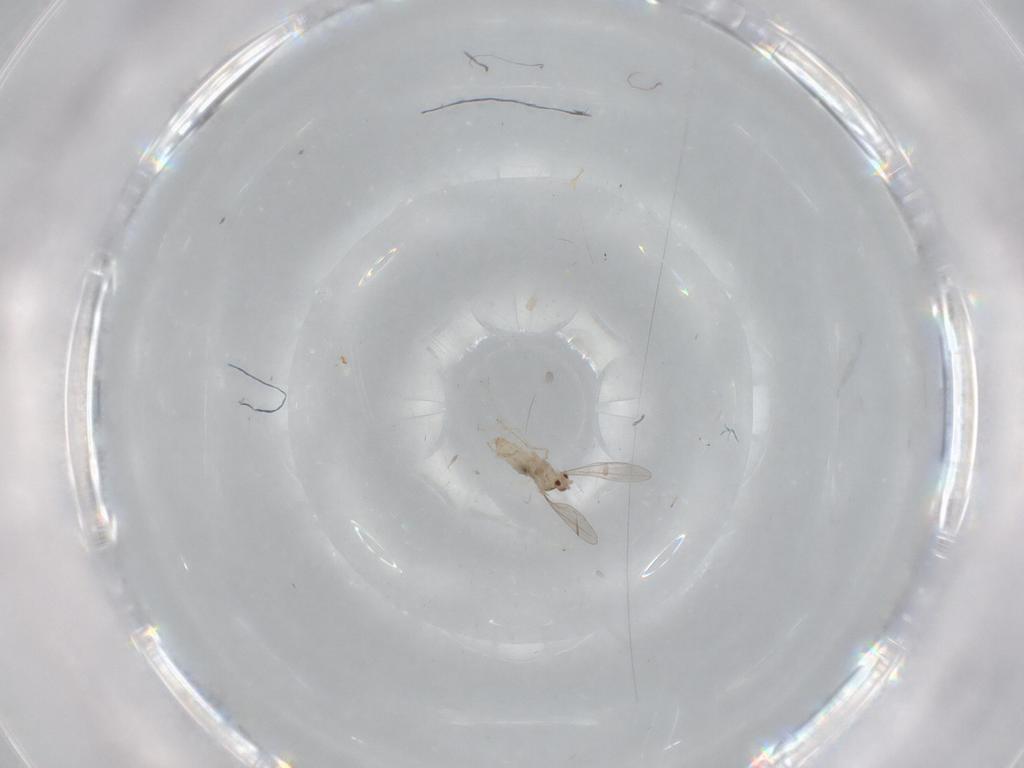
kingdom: Animalia
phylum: Arthropoda
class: Insecta
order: Diptera
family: Cecidomyiidae
